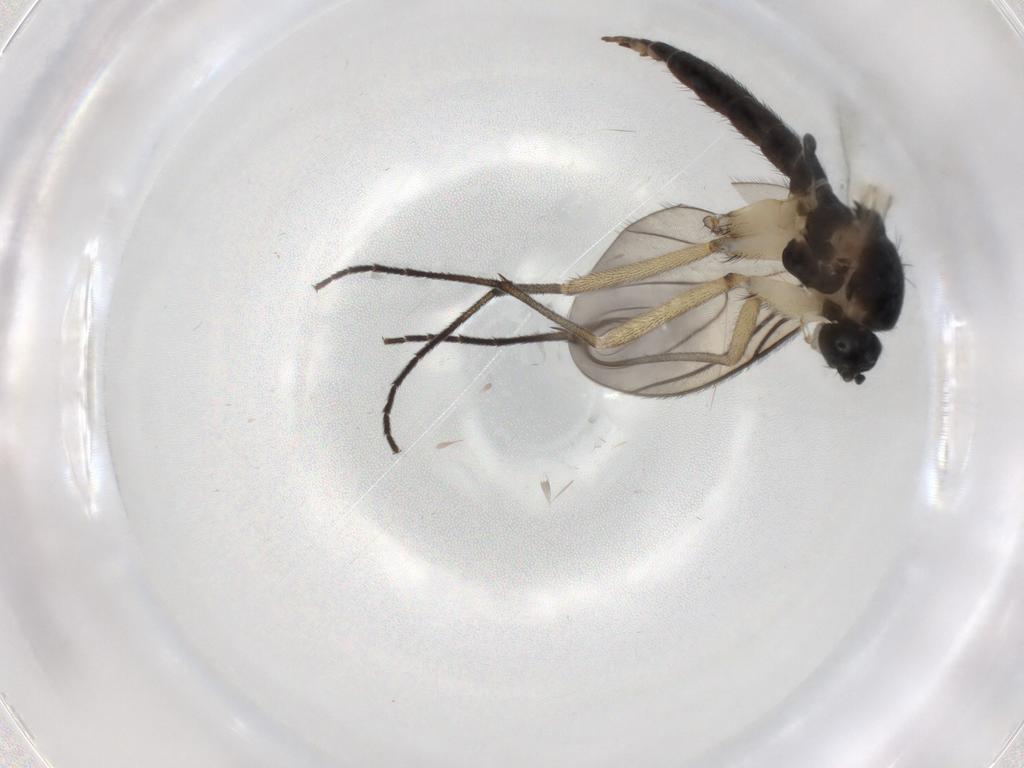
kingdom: Animalia
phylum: Arthropoda
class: Insecta
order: Diptera
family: Sciaridae
